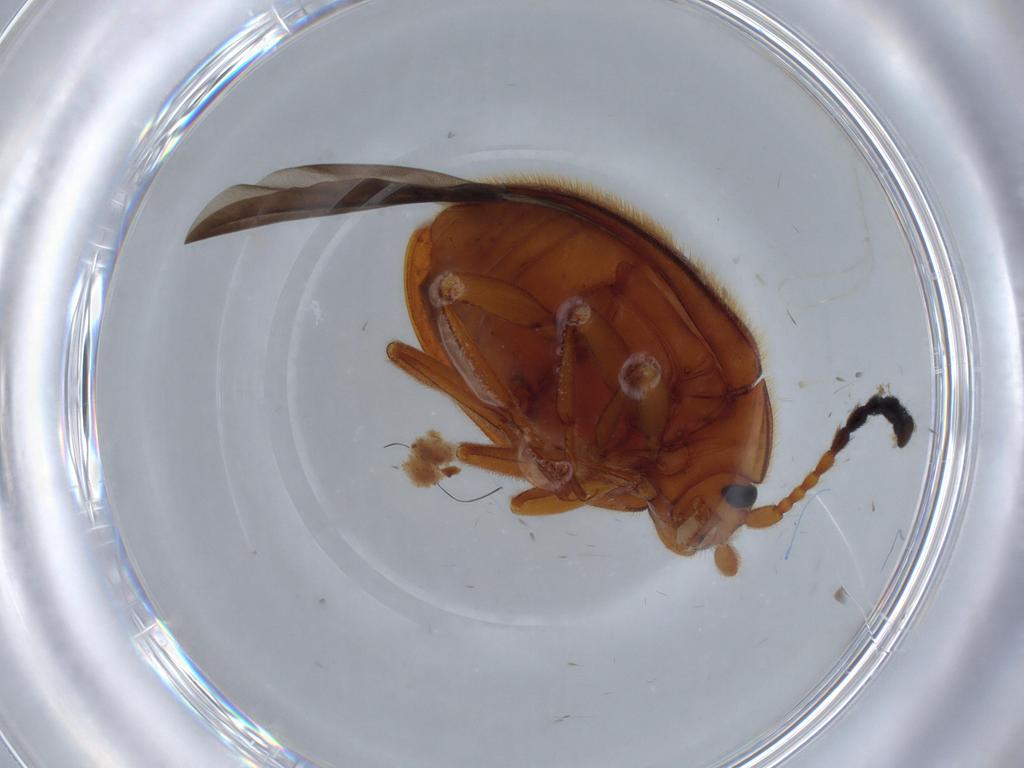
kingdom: Animalia
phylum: Arthropoda
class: Insecta
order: Coleoptera
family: Endomychidae
